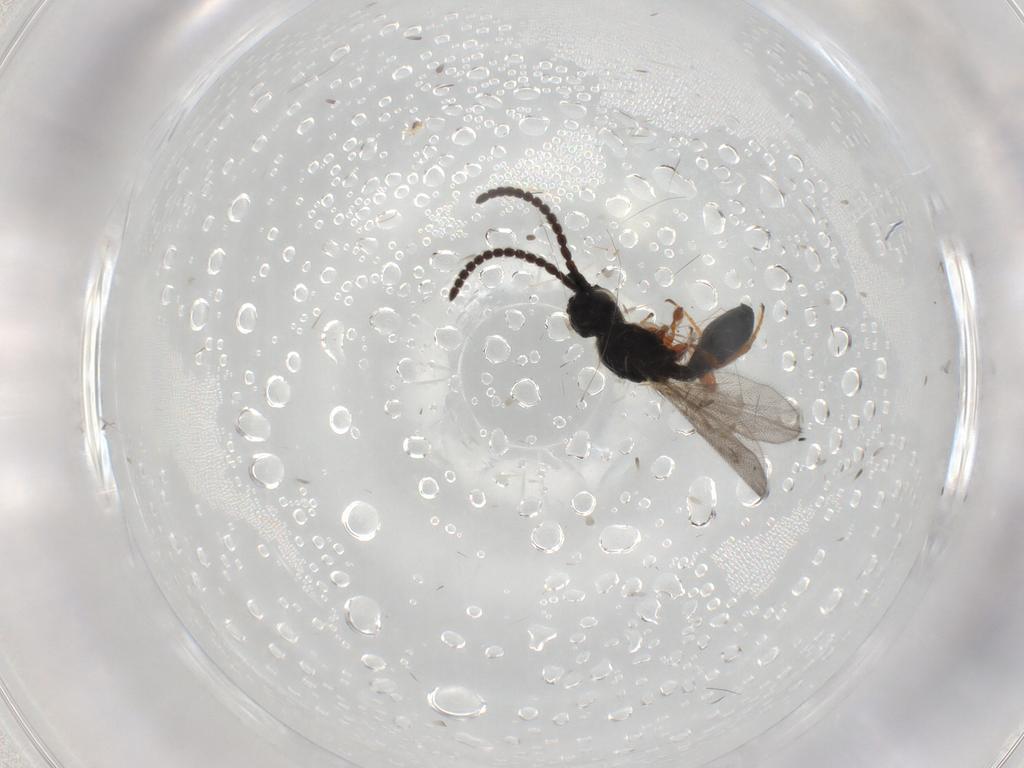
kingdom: Animalia
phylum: Arthropoda
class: Insecta
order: Hymenoptera
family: Diapriidae
